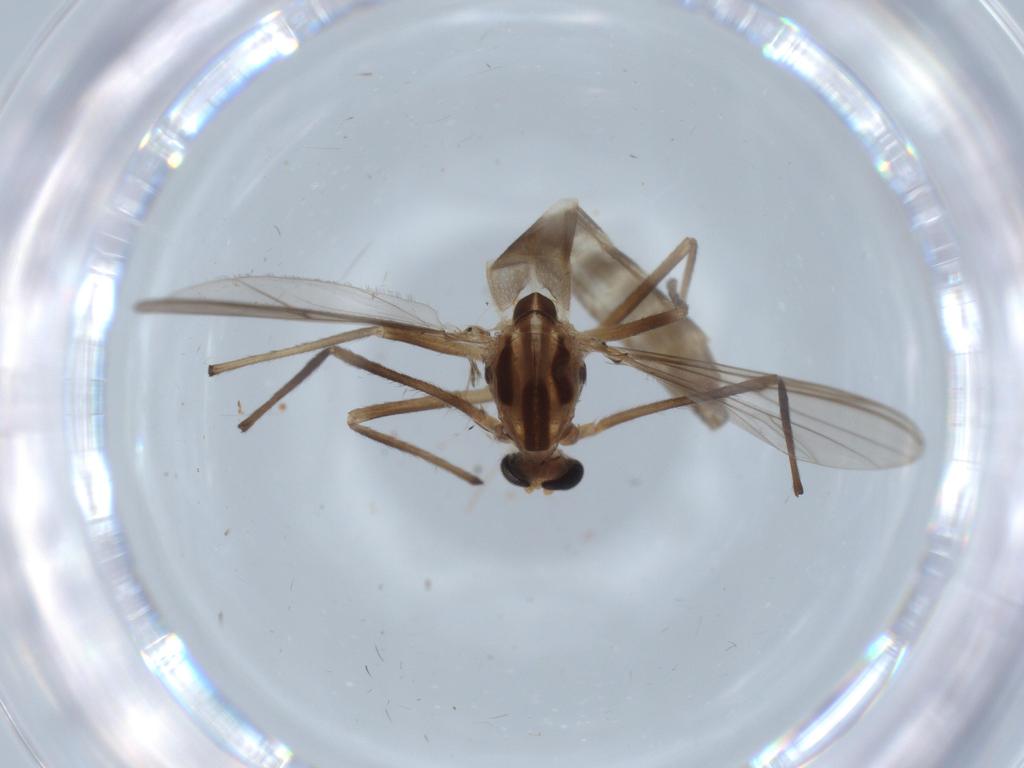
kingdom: Animalia
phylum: Arthropoda
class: Insecta
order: Diptera
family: Chironomidae
